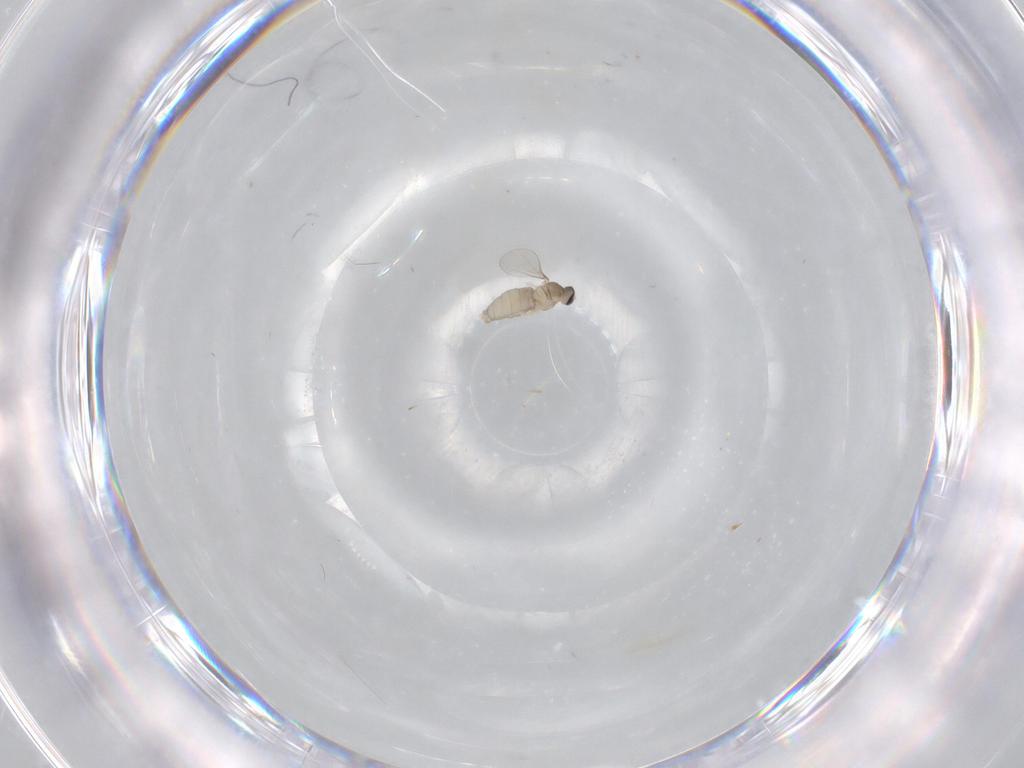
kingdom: Animalia
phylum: Arthropoda
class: Insecta
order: Diptera
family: Cecidomyiidae
